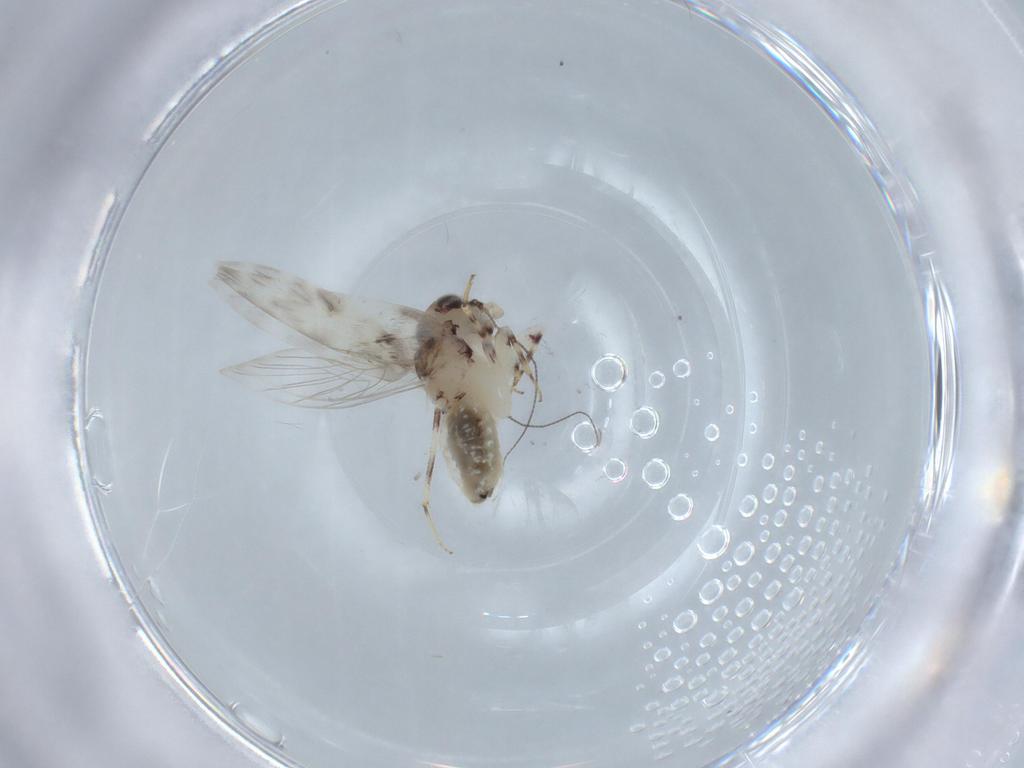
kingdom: Animalia
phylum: Arthropoda
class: Insecta
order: Psocodea
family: Lepidopsocidae
